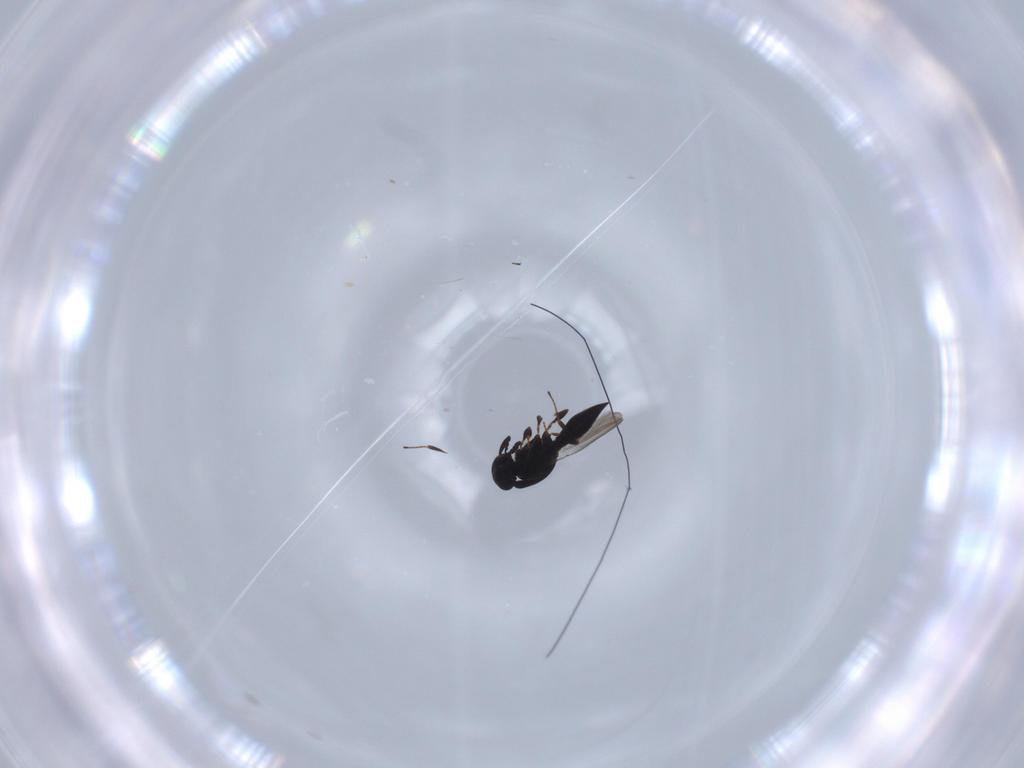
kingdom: Animalia
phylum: Arthropoda
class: Insecta
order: Hymenoptera
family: Platygastridae
